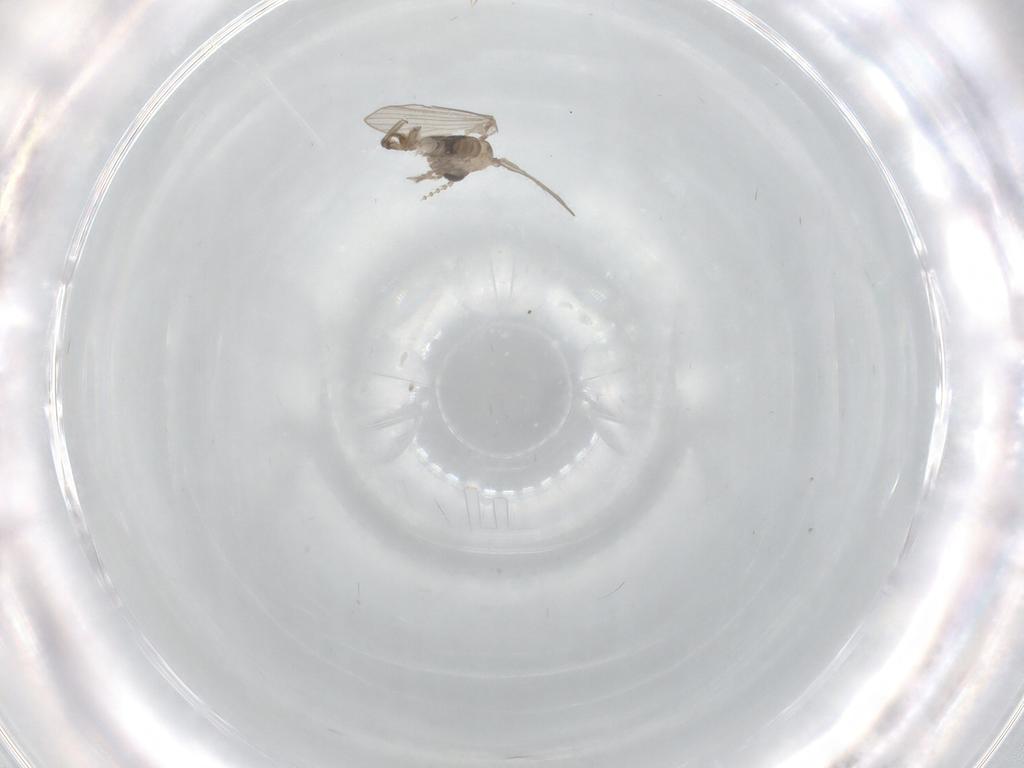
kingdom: Animalia
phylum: Arthropoda
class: Insecta
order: Diptera
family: Psychodidae
